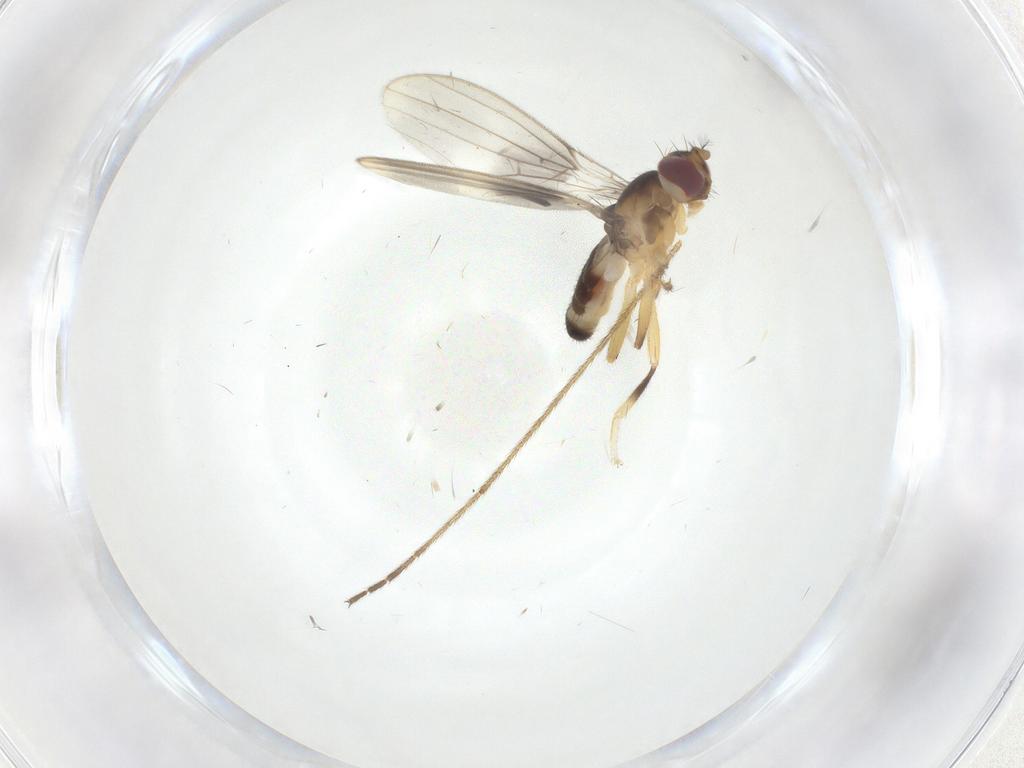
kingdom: Animalia
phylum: Arthropoda
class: Insecta
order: Diptera
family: Periscelididae
